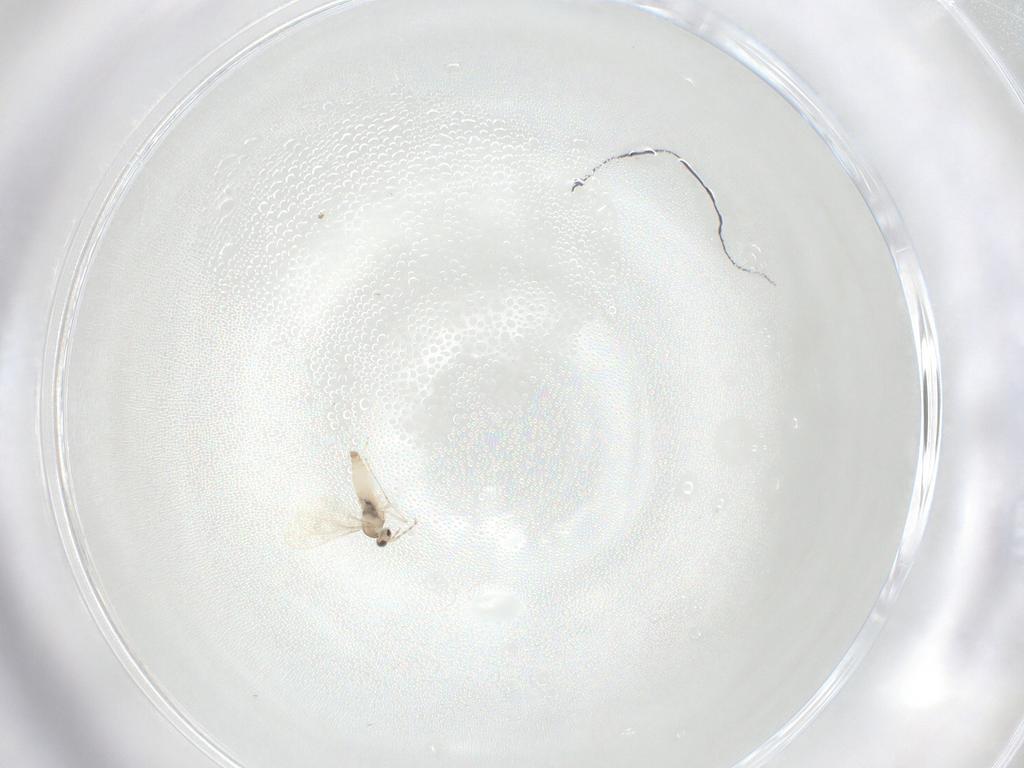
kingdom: Animalia
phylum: Arthropoda
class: Insecta
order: Diptera
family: Cecidomyiidae
